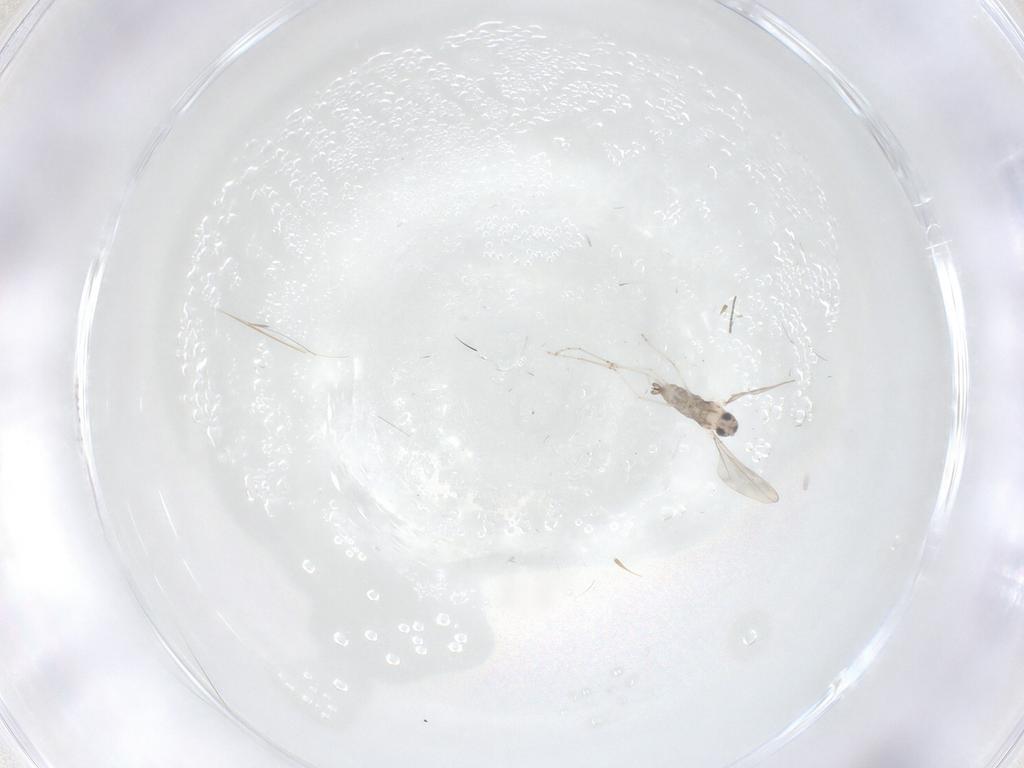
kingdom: Animalia
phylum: Arthropoda
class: Insecta
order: Diptera
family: Cecidomyiidae
